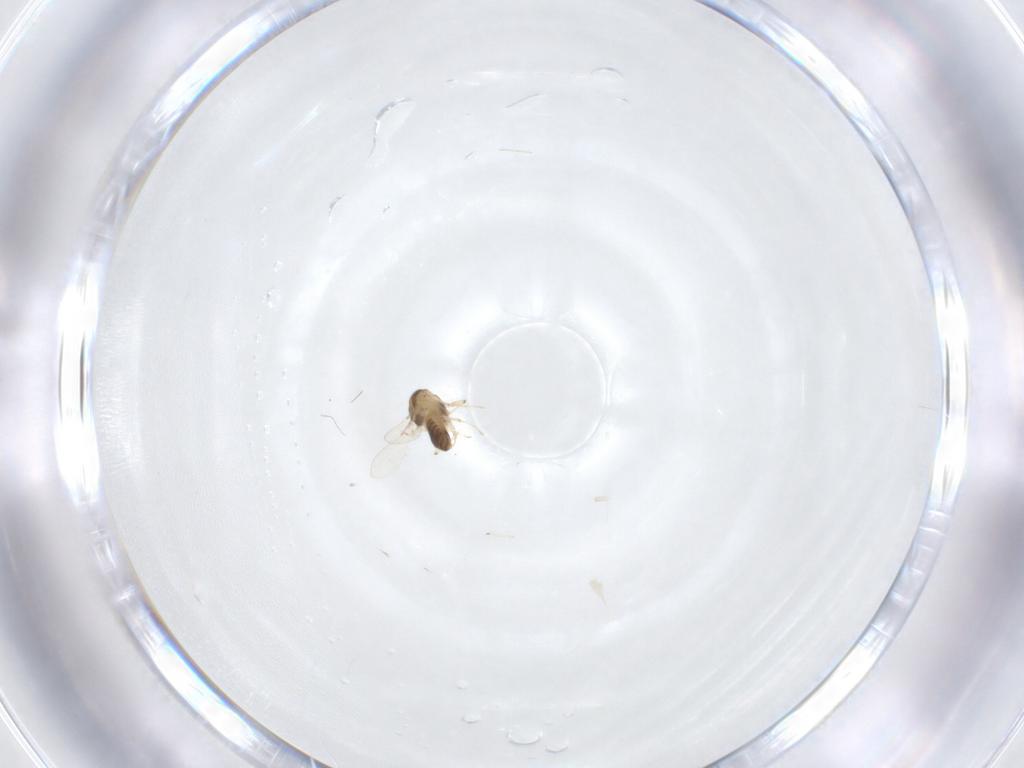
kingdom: Animalia
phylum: Arthropoda
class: Insecta
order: Diptera
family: Chironomidae
